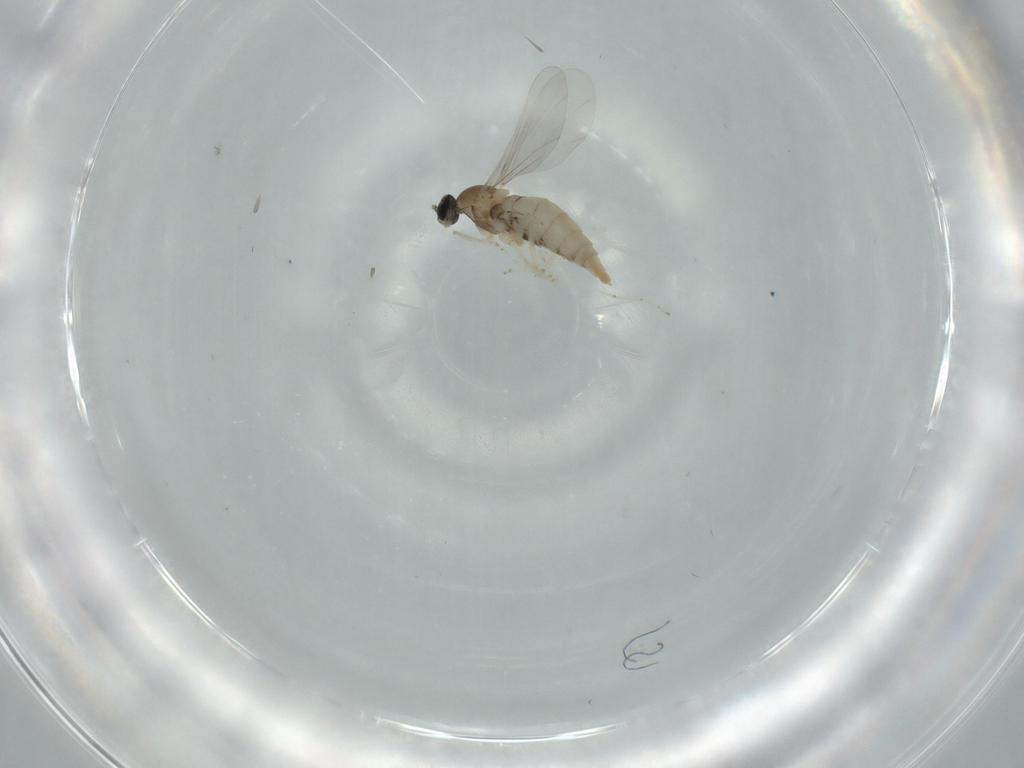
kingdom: Animalia
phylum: Arthropoda
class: Insecta
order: Diptera
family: Cecidomyiidae
